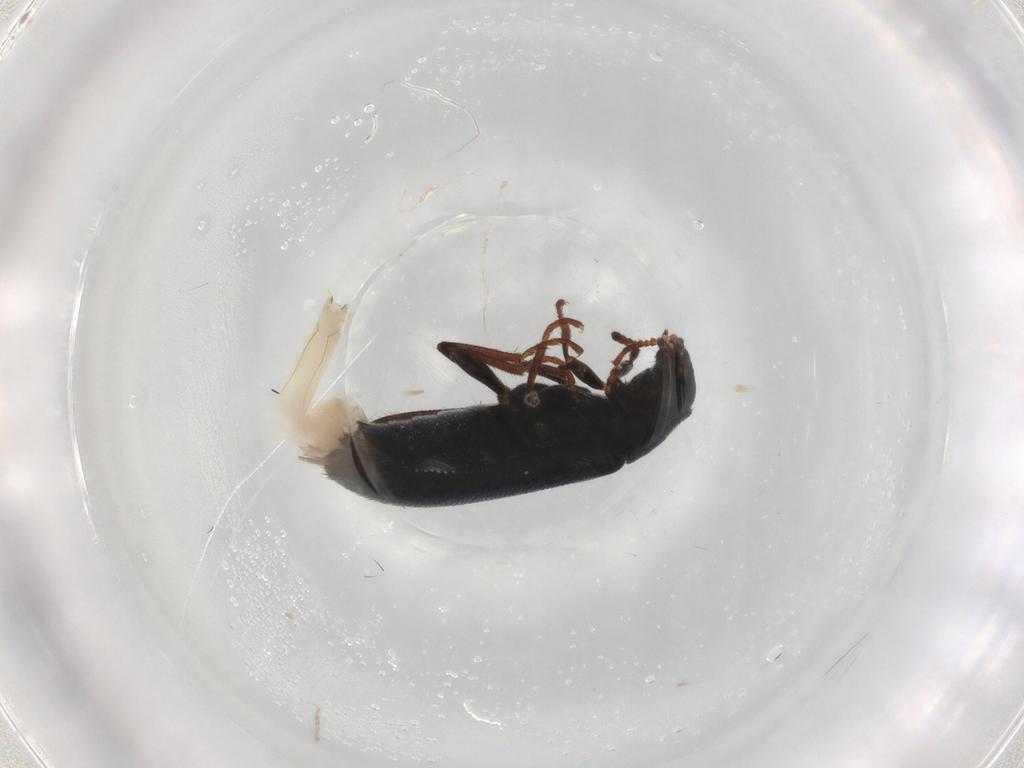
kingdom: Animalia
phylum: Arthropoda
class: Insecta
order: Coleoptera
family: Melyridae
